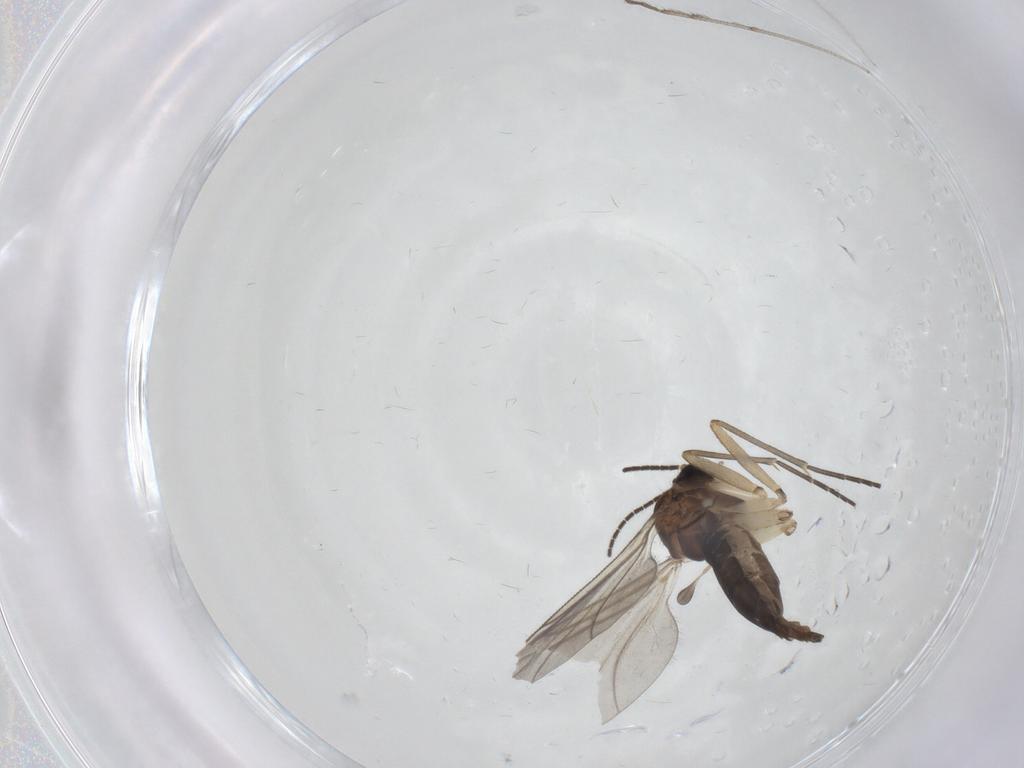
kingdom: Animalia
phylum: Arthropoda
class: Insecta
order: Diptera
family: Sciaridae
